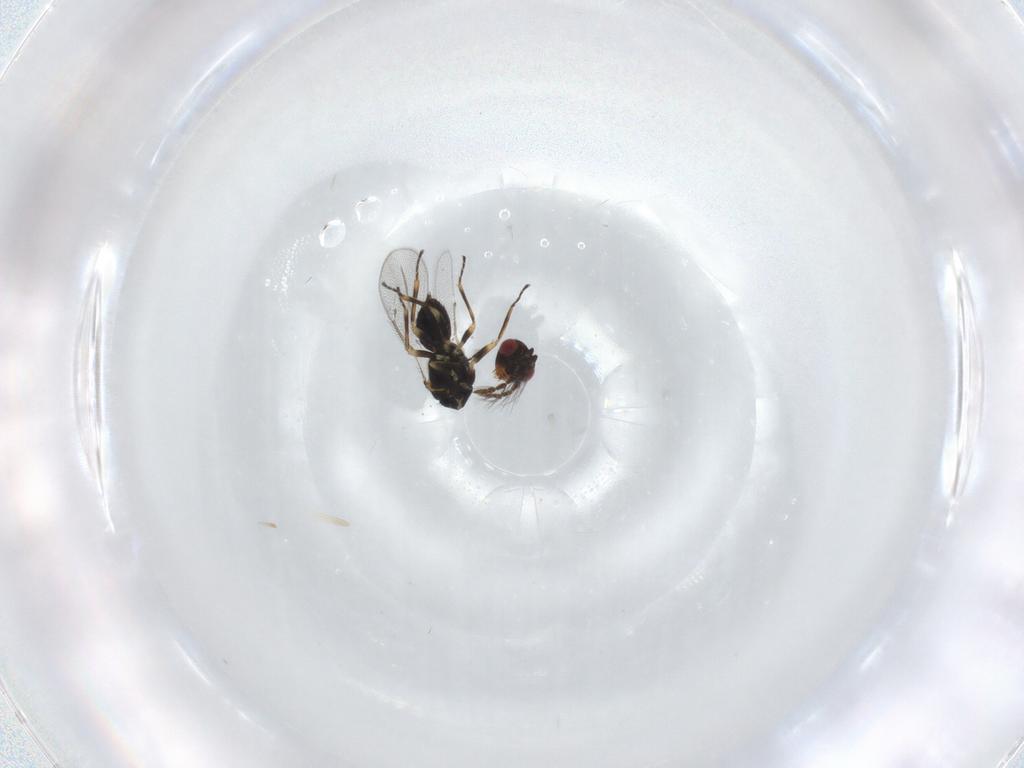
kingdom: Animalia
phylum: Arthropoda
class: Insecta
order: Hymenoptera
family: Eulophidae
